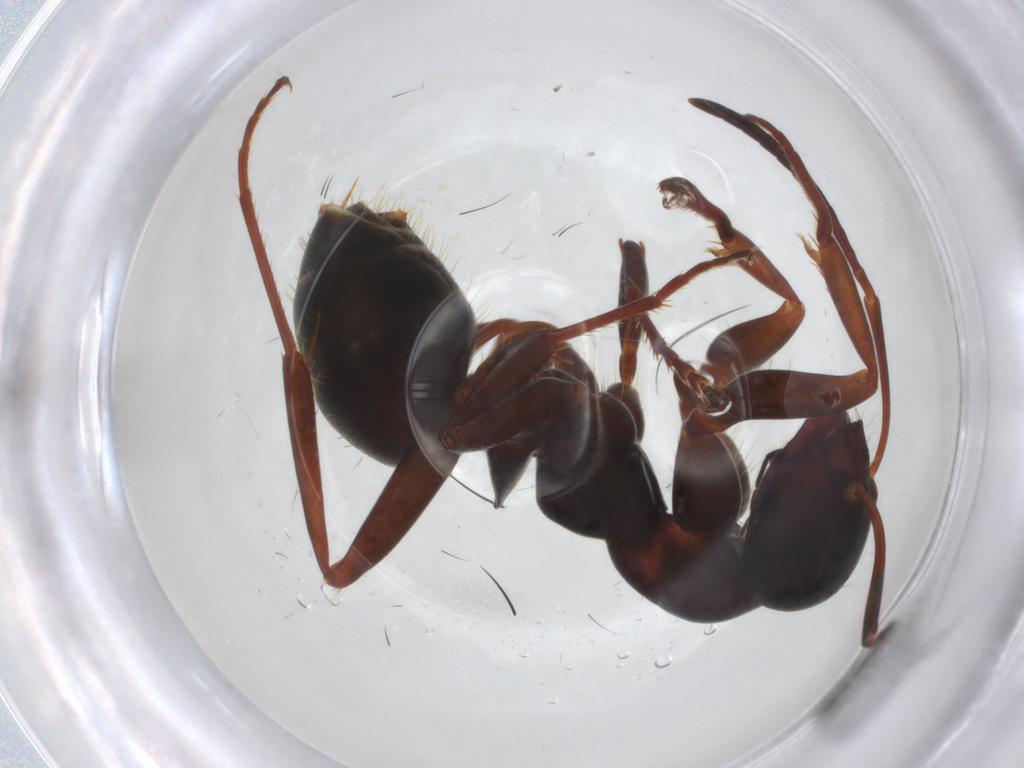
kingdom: Animalia
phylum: Arthropoda
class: Insecta
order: Hymenoptera
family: Formicidae
